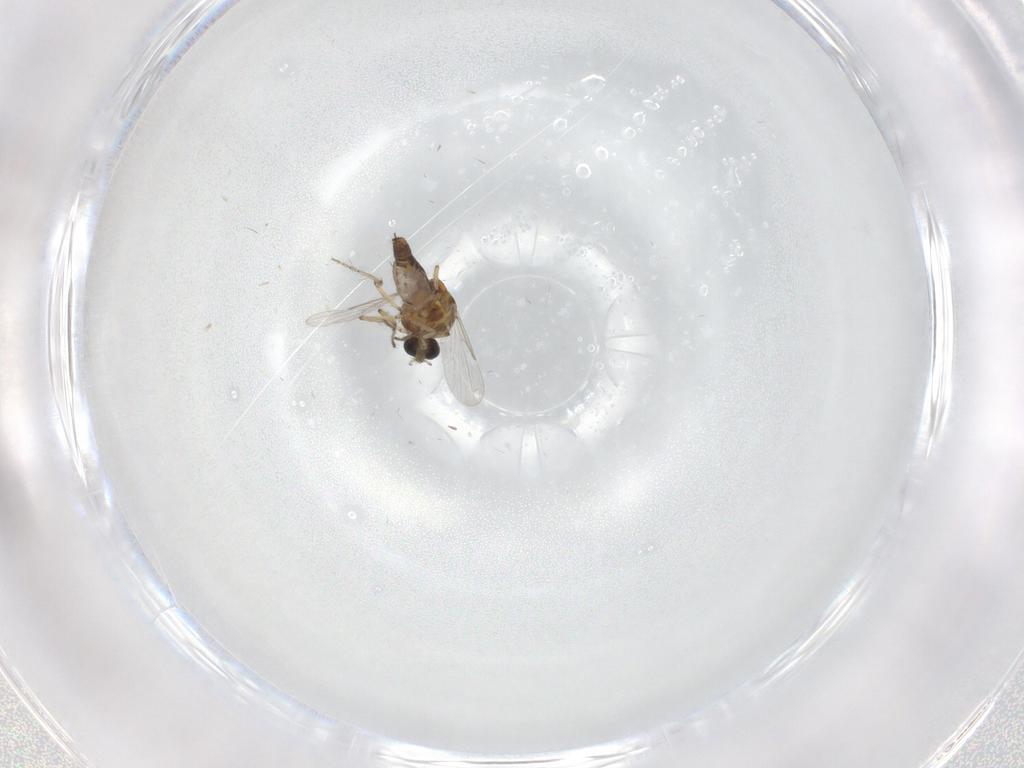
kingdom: Animalia
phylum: Arthropoda
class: Insecta
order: Diptera
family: Ceratopogonidae
